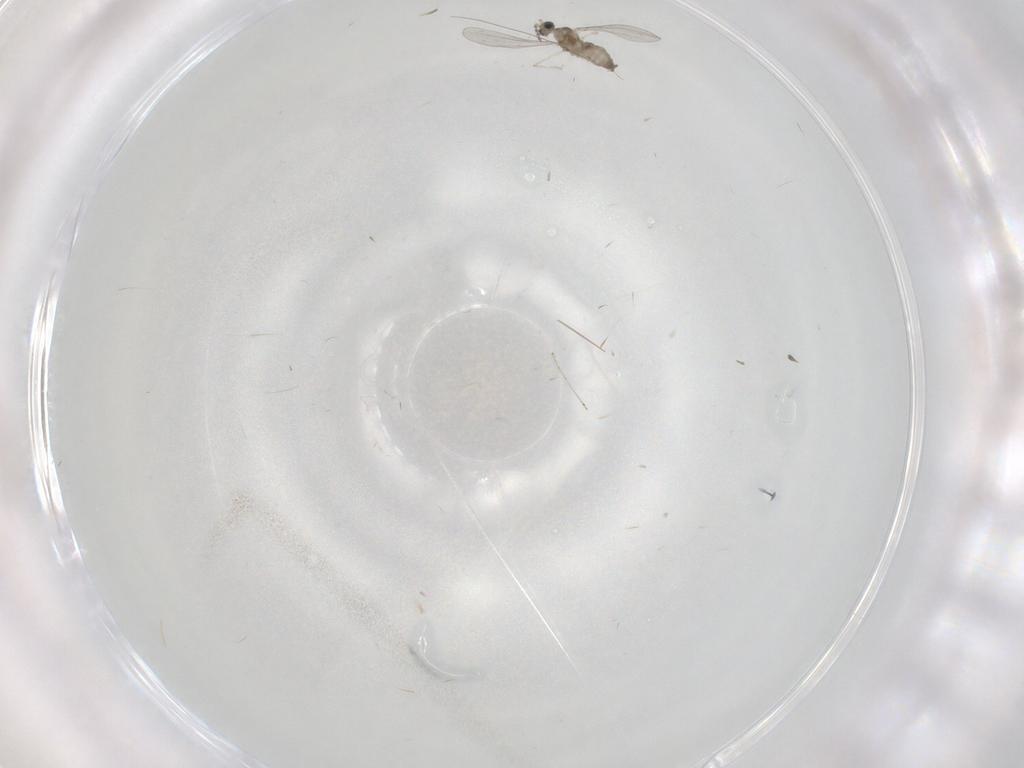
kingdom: Animalia
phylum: Arthropoda
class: Insecta
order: Diptera
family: Cecidomyiidae
